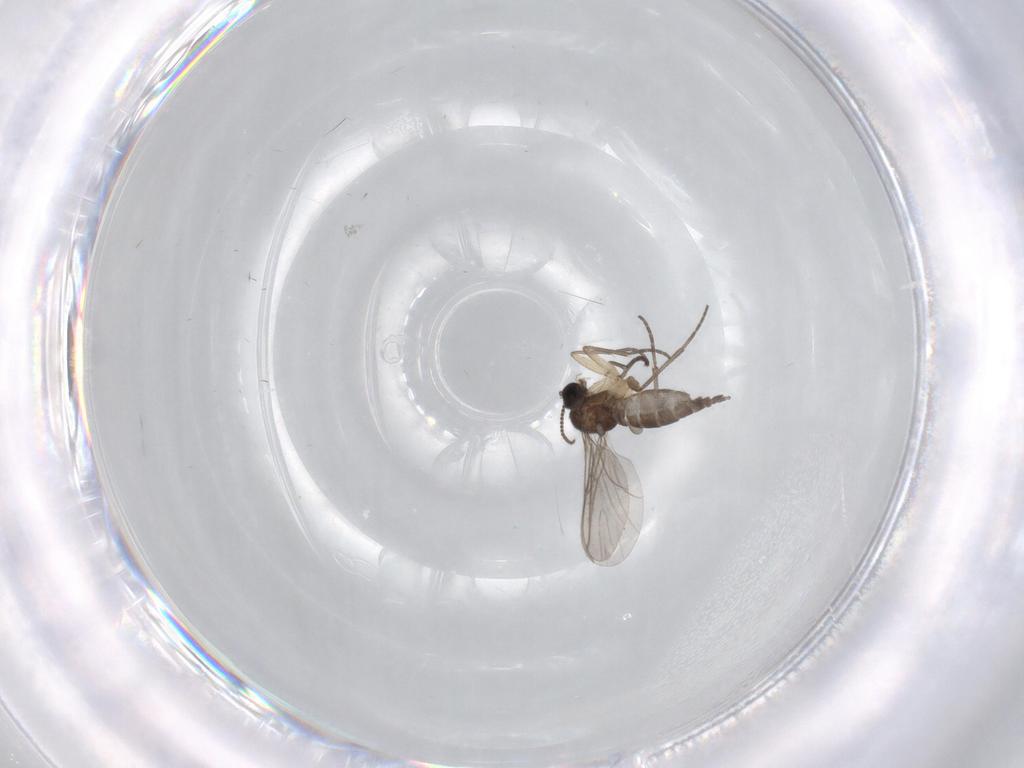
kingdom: Animalia
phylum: Arthropoda
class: Insecta
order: Diptera
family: Sciaridae
